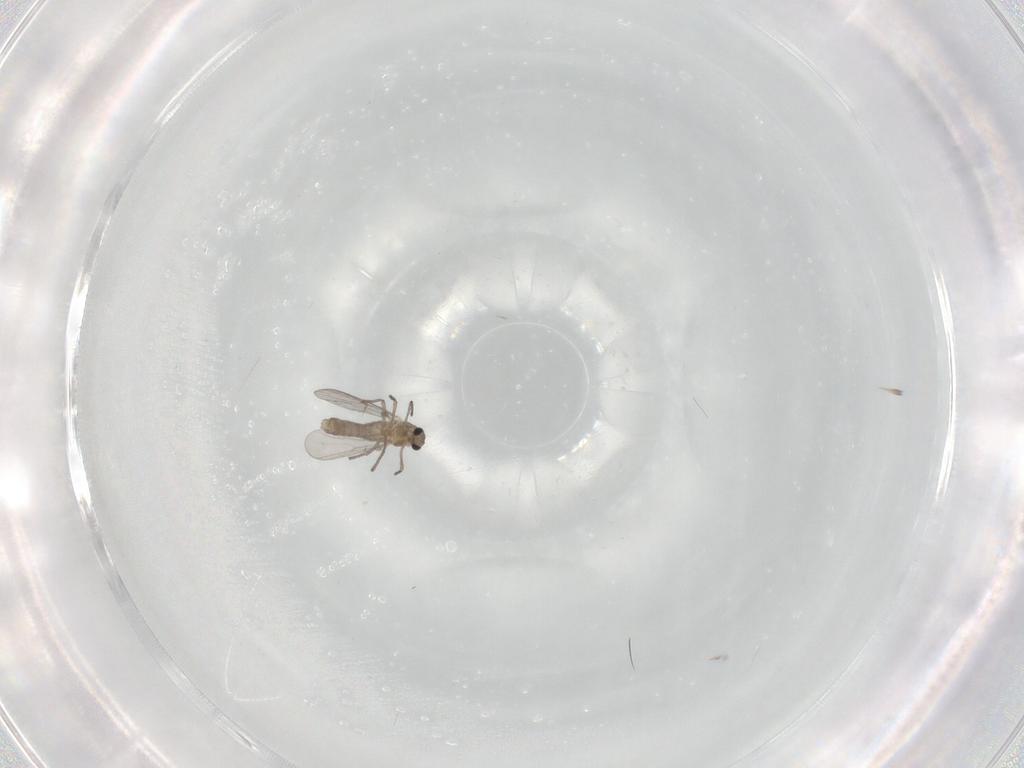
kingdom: Animalia
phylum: Arthropoda
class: Insecta
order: Diptera
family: Chironomidae
